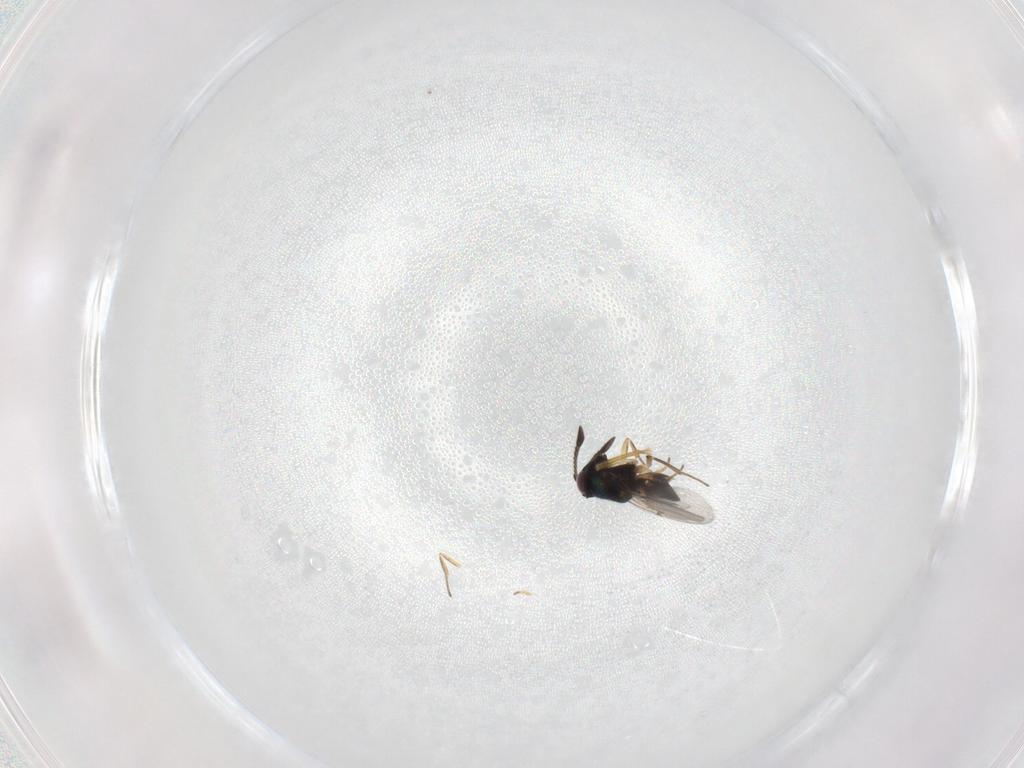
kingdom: Animalia
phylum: Arthropoda
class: Insecta
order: Hymenoptera
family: Encyrtidae
